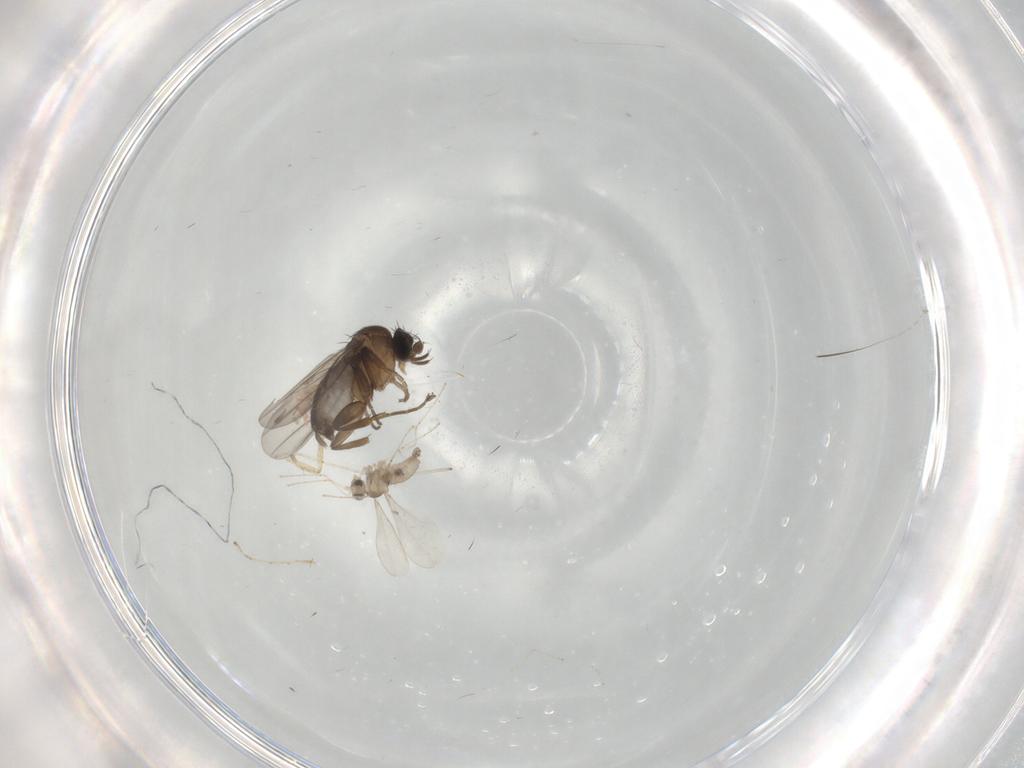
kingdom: Animalia
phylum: Arthropoda
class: Insecta
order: Diptera
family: Cecidomyiidae
